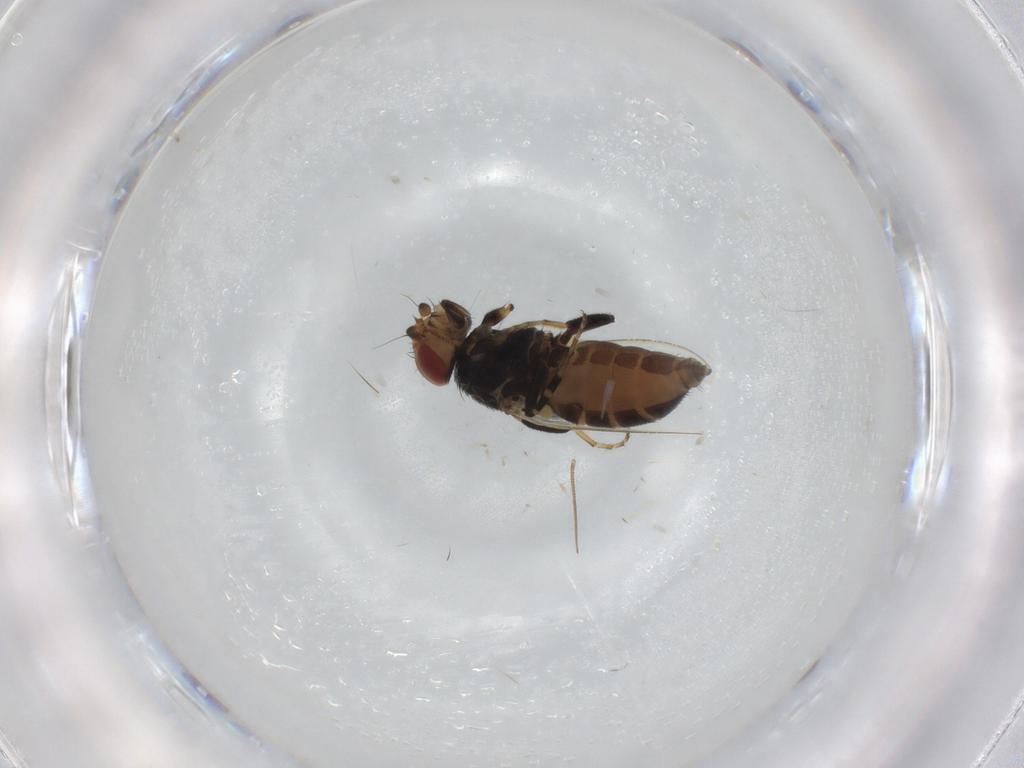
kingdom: Animalia
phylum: Arthropoda
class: Insecta
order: Diptera
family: Milichiidae
